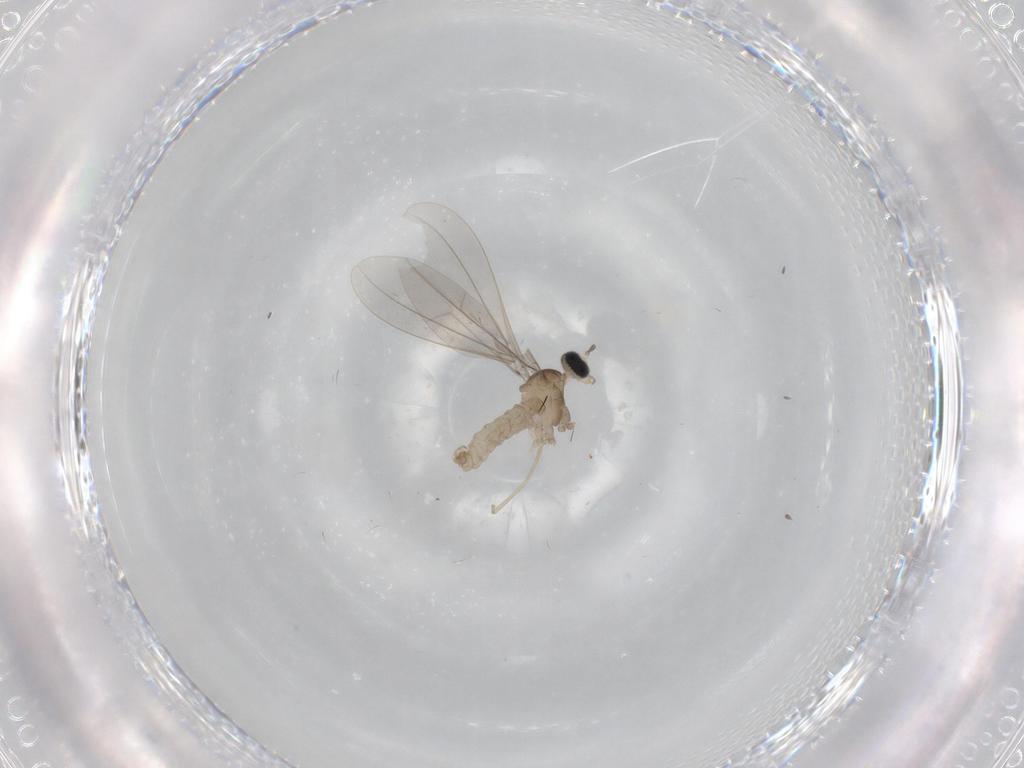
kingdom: Animalia
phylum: Arthropoda
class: Insecta
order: Diptera
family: Cecidomyiidae
